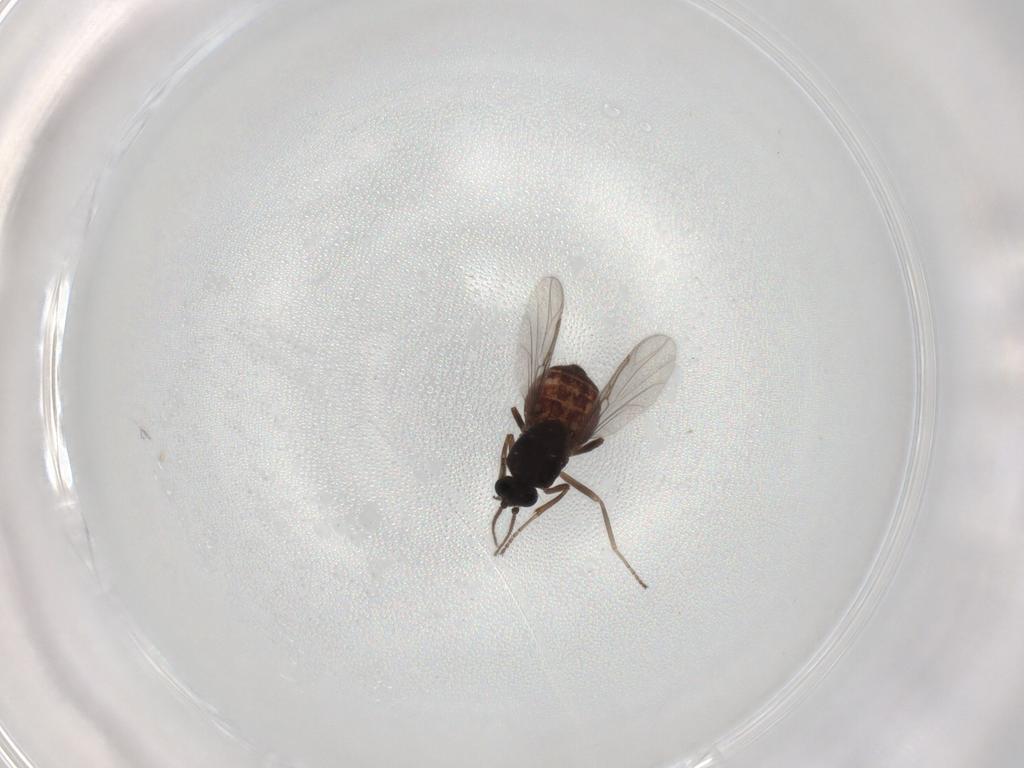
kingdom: Animalia
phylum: Arthropoda
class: Insecta
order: Diptera
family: Ceratopogonidae
